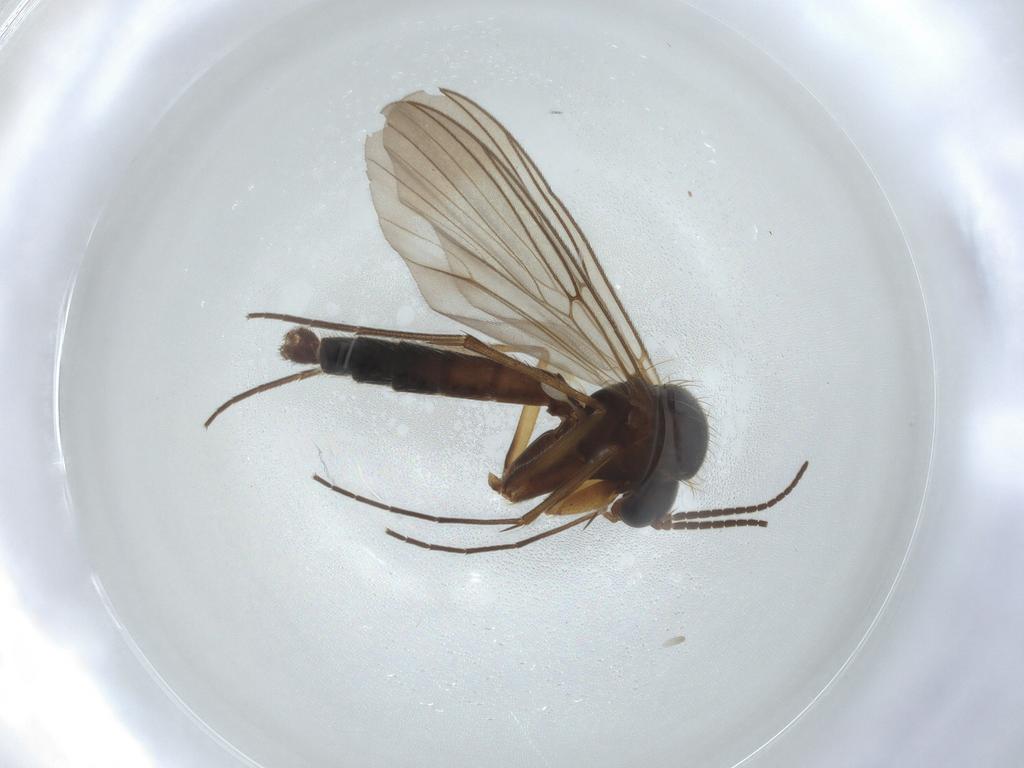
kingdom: Animalia
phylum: Arthropoda
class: Insecta
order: Diptera
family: Mycetophilidae
